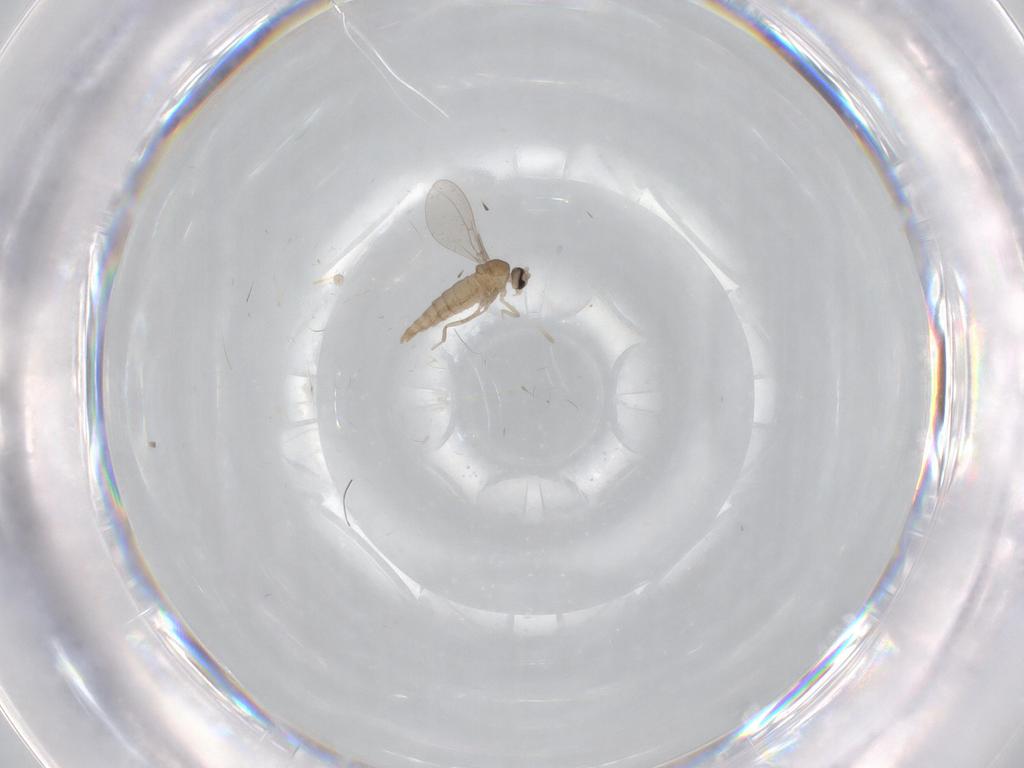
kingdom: Animalia
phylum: Arthropoda
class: Insecta
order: Diptera
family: Cecidomyiidae
